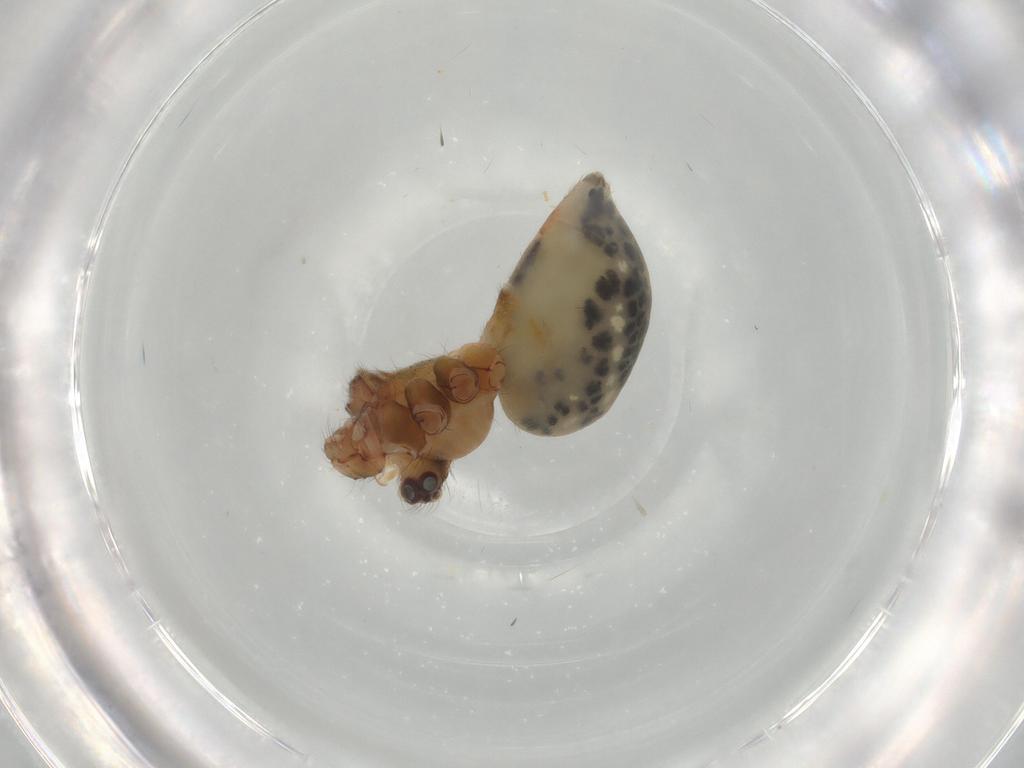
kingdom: Animalia
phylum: Arthropoda
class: Arachnida
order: Araneae
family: Pholcidae
